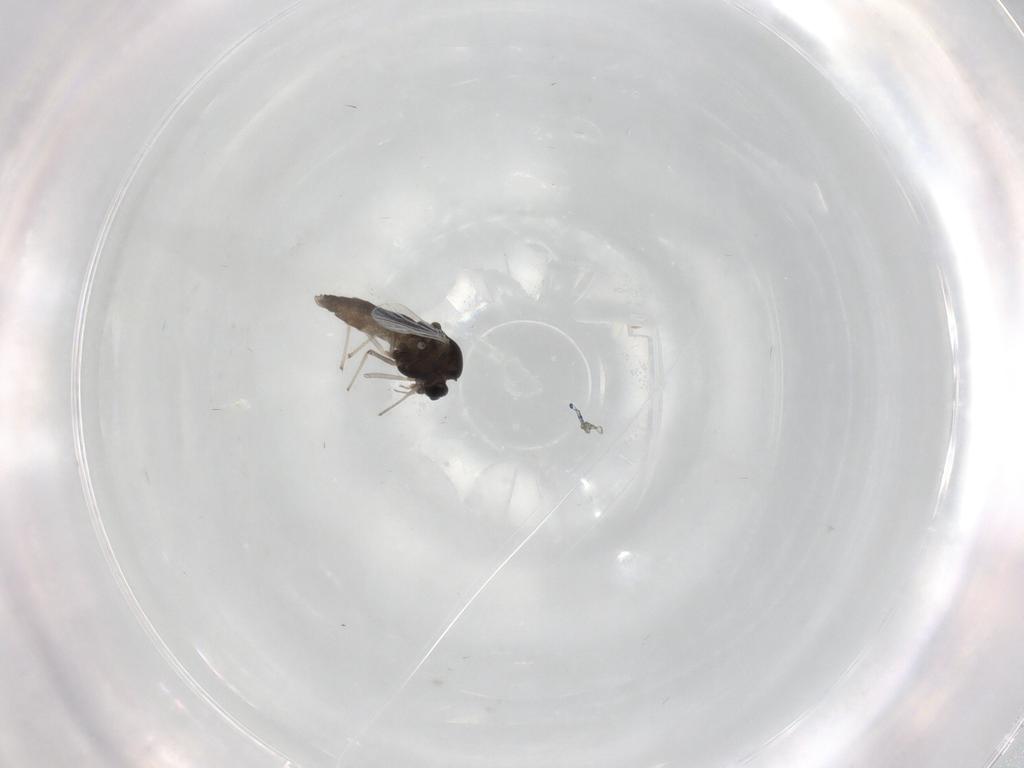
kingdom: Animalia
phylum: Arthropoda
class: Insecta
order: Diptera
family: Chironomidae
